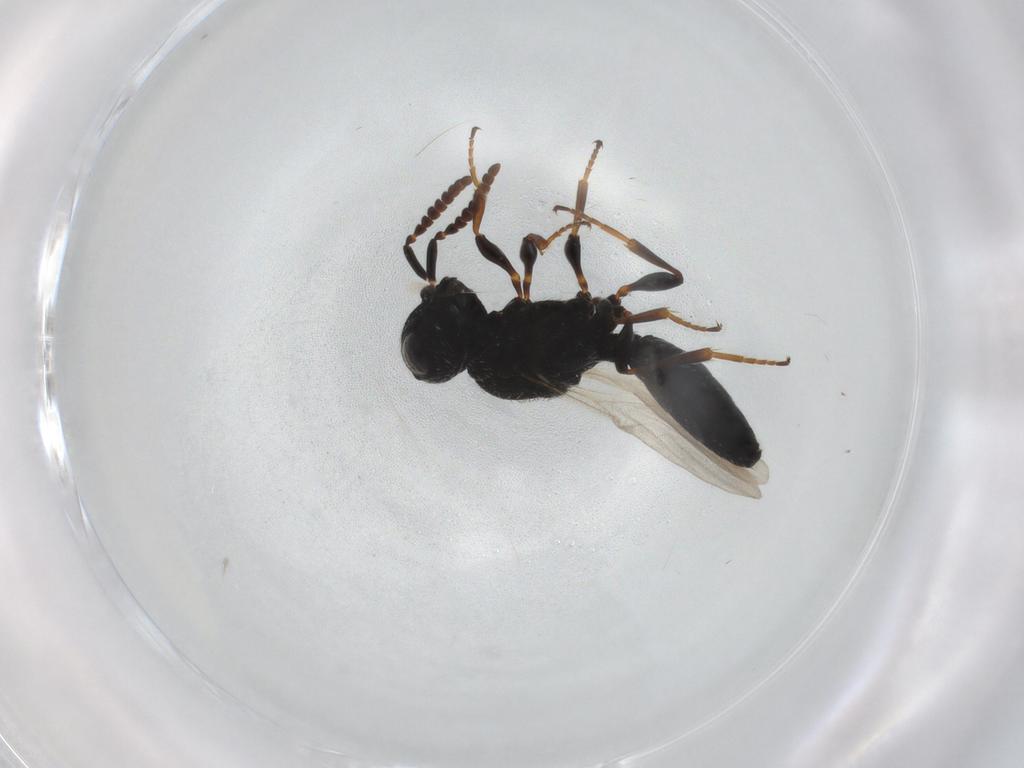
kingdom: Animalia
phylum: Arthropoda
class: Insecta
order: Hymenoptera
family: Scelionidae
